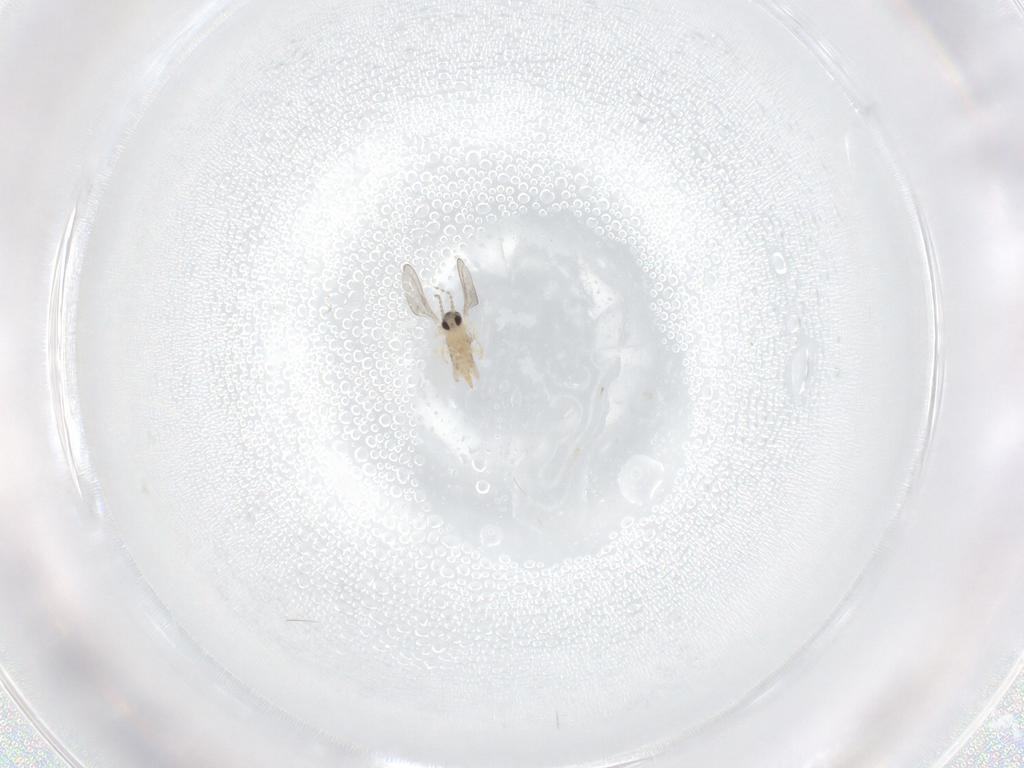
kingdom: Animalia
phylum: Arthropoda
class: Insecta
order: Diptera
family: Cecidomyiidae
